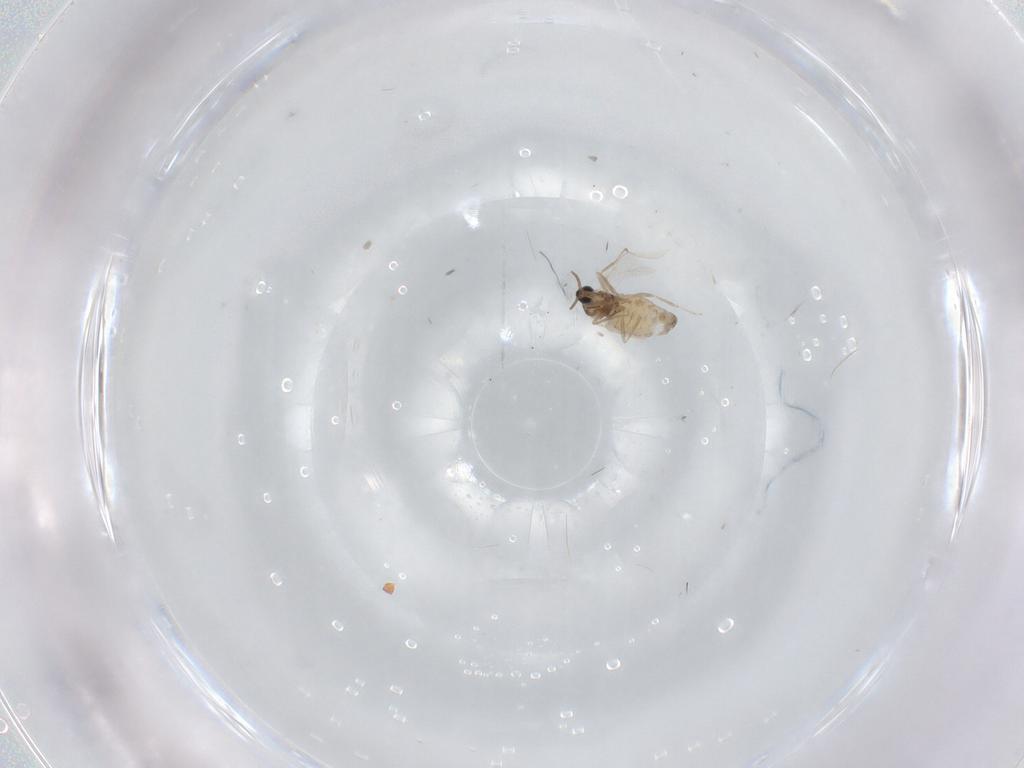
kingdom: Animalia
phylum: Arthropoda
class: Insecta
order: Diptera
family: Cecidomyiidae
